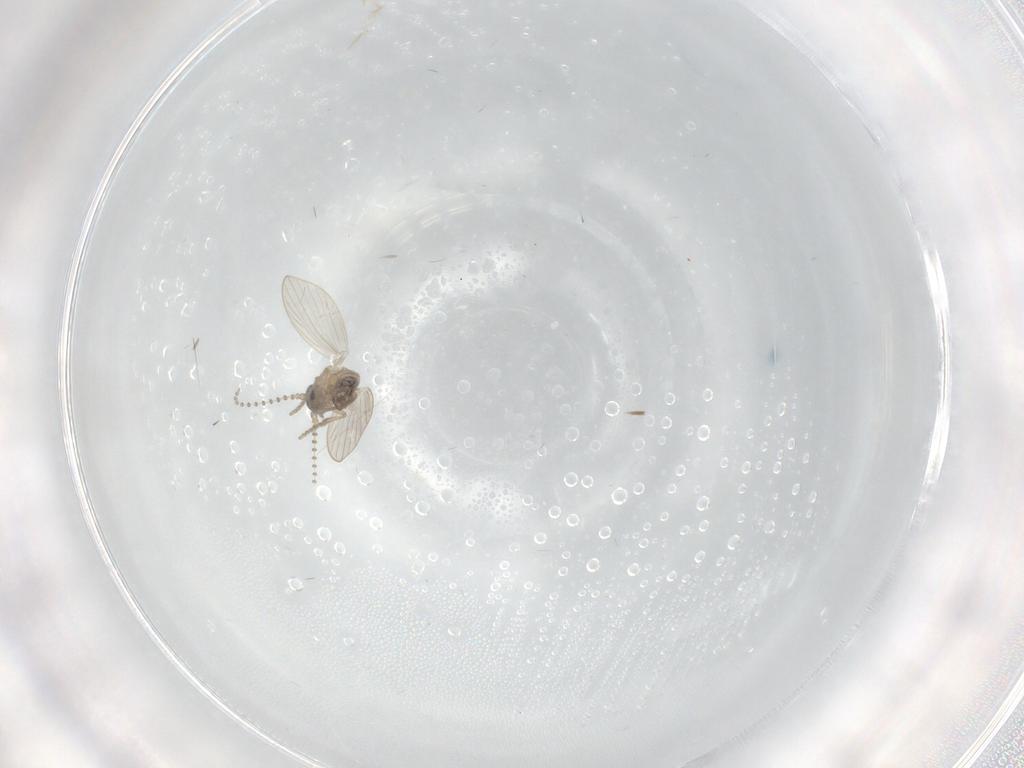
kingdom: Animalia
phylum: Arthropoda
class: Insecta
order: Diptera
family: Psychodidae
